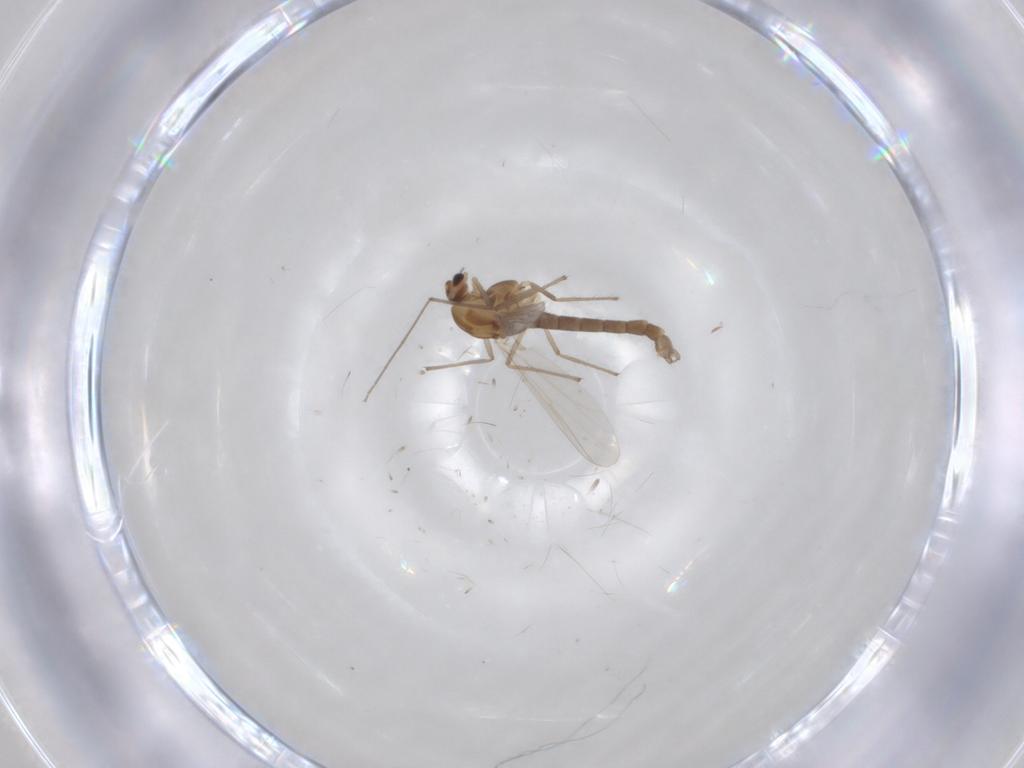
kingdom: Animalia
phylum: Arthropoda
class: Insecta
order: Diptera
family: Chironomidae
